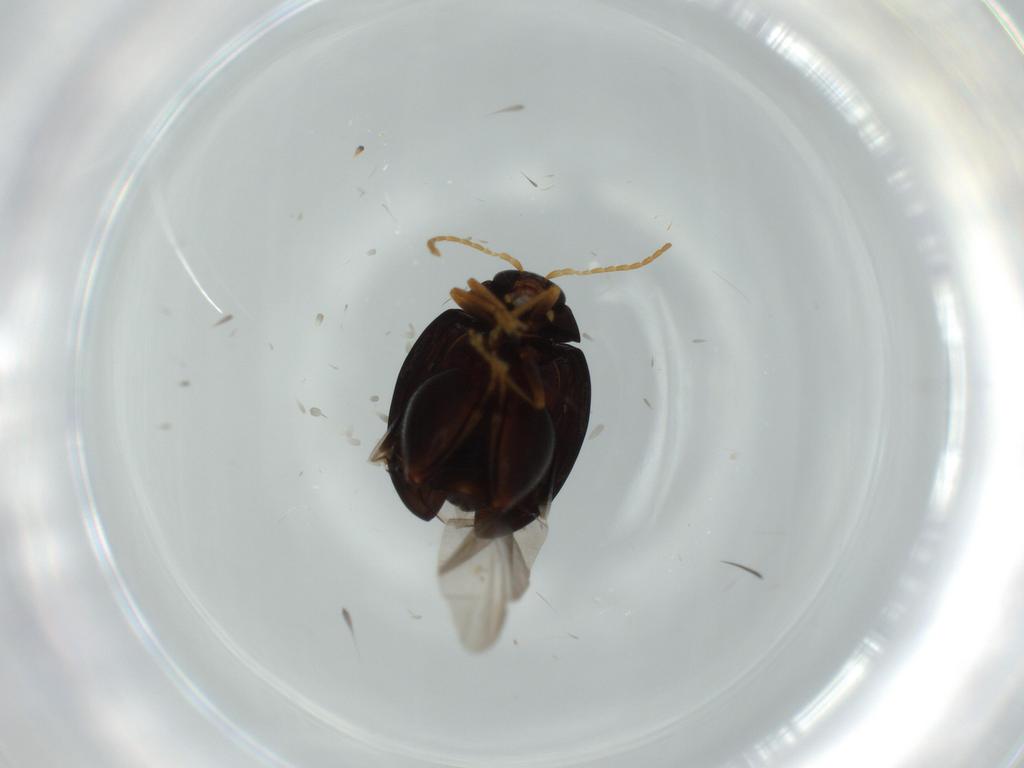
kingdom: Animalia
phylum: Arthropoda
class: Insecta
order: Coleoptera
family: Chrysomelidae
